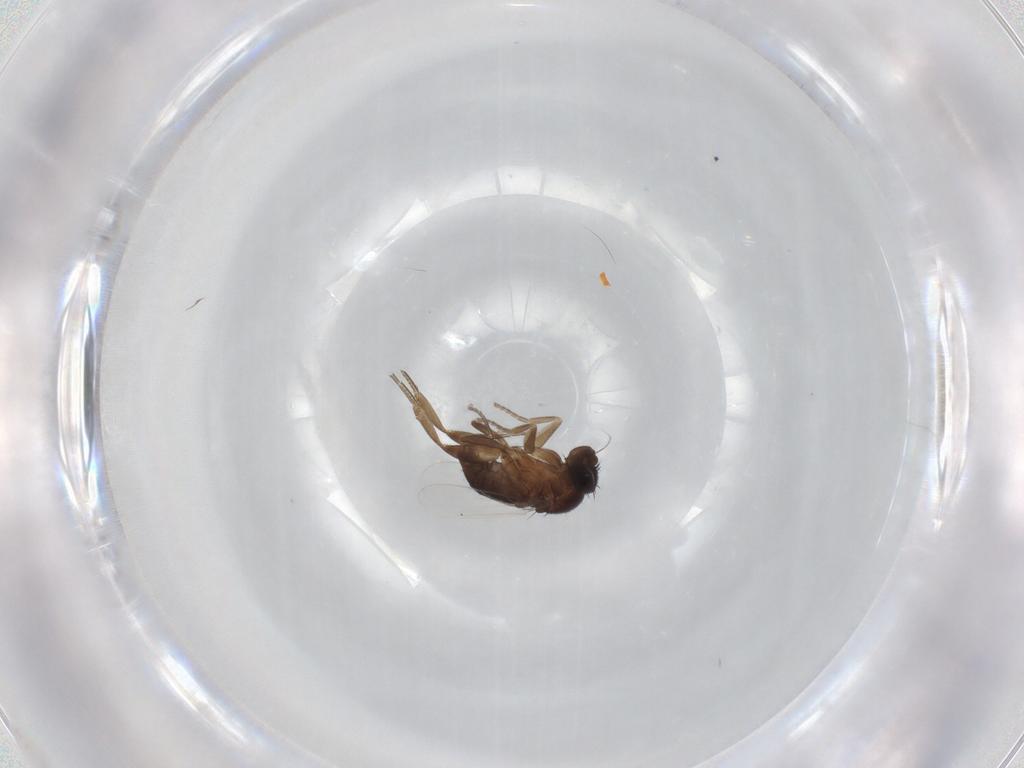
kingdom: Animalia
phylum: Arthropoda
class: Insecta
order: Diptera
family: Phoridae
